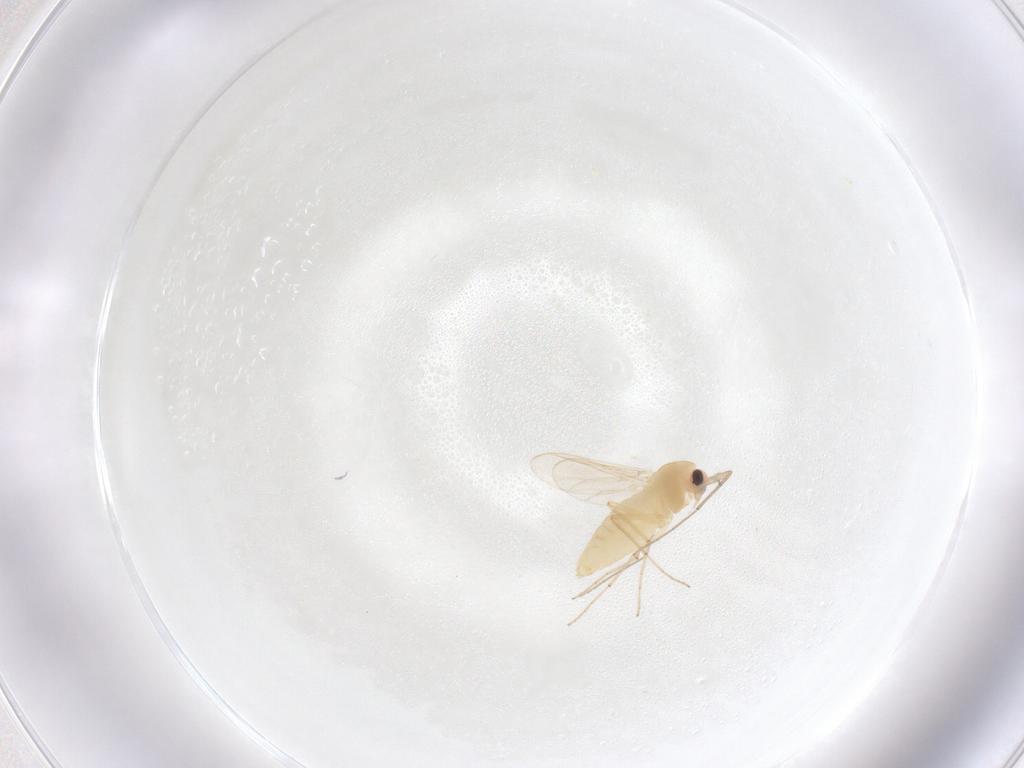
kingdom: Animalia
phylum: Arthropoda
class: Insecta
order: Diptera
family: Chironomidae
